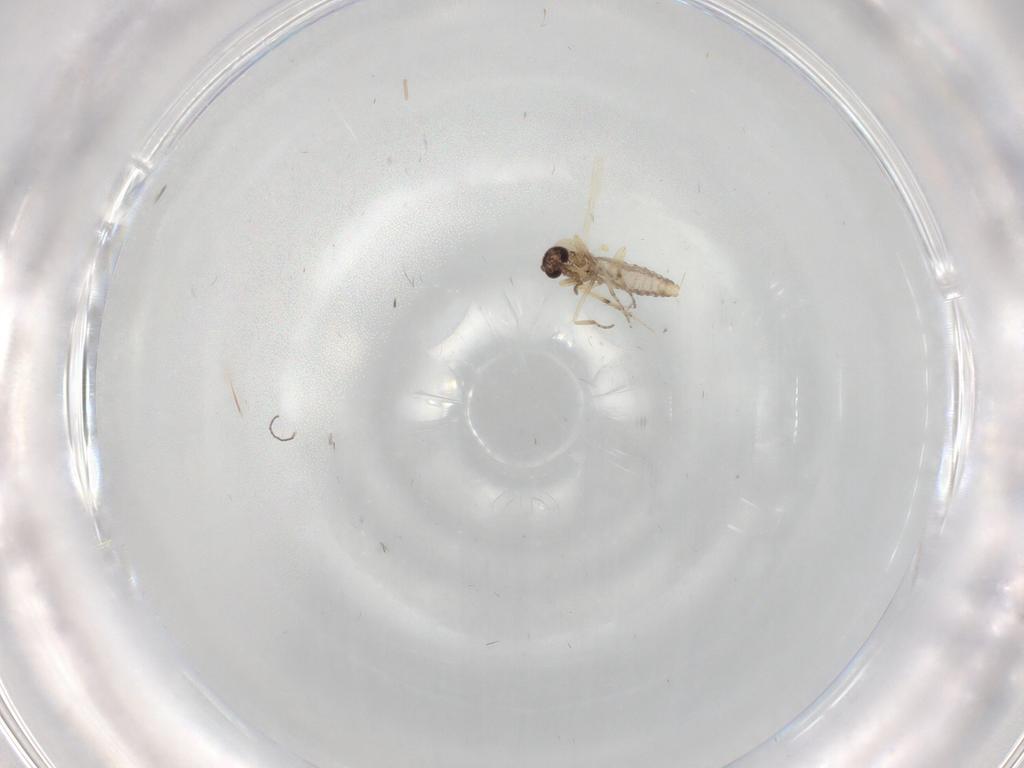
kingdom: Animalia
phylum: Arthropoda
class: Insecta
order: Diptera
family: Ceratopogonidae
